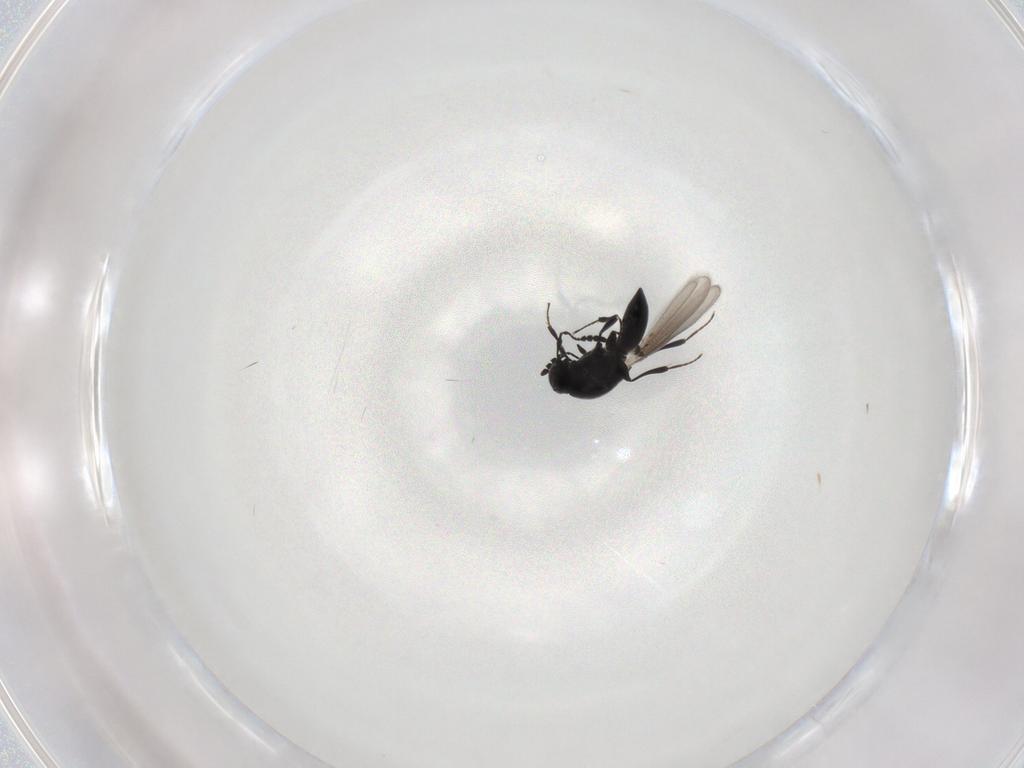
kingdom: Animalia
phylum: Arthropoda
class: Insecta
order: Hymenoptera
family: Platygastridae
